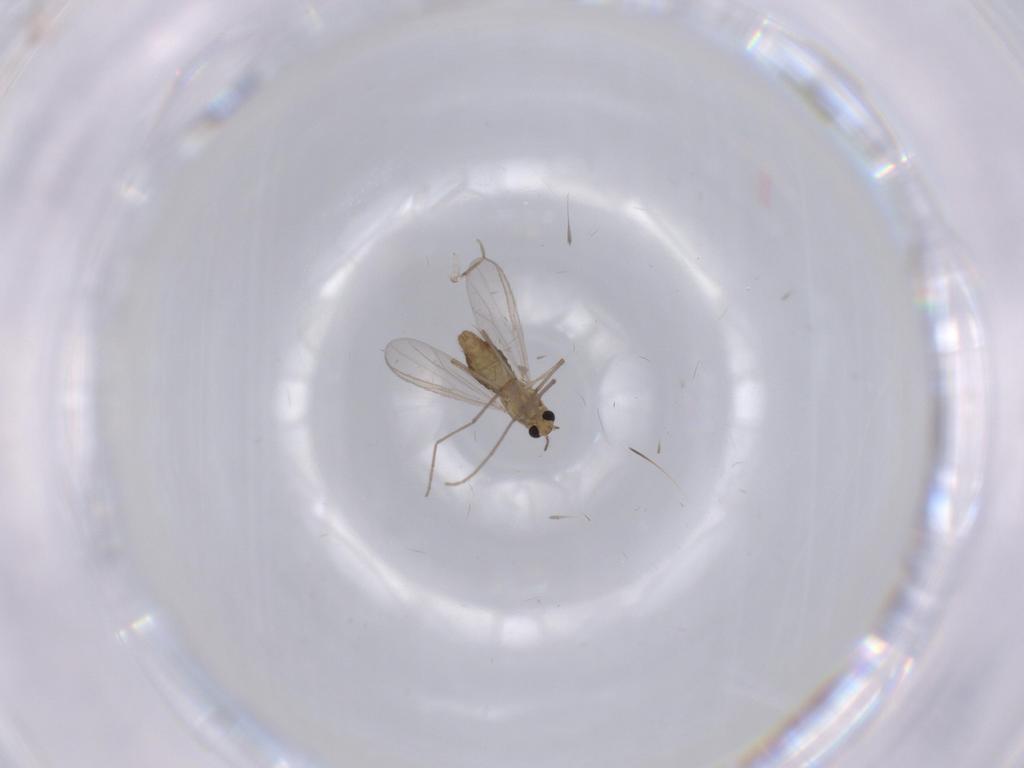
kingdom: Animalia
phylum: Arthropoda
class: Insecta
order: Diptera
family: Chironomidae
